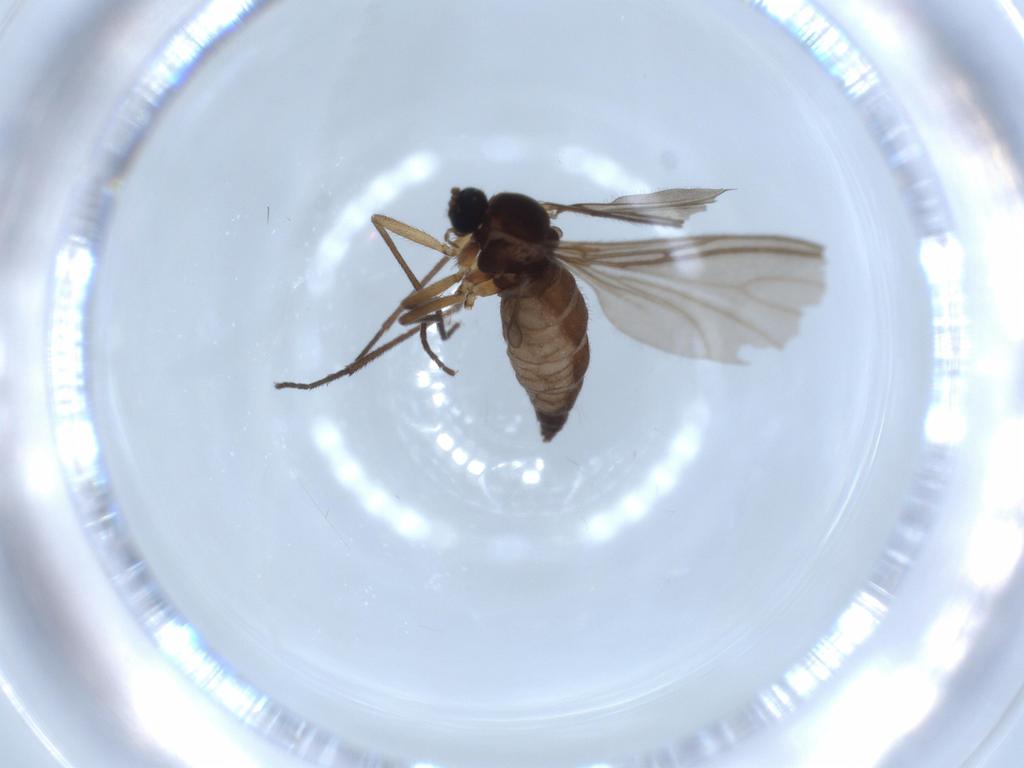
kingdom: Animalia
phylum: Arthropoda
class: Insecta
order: Diptera
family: Sciaridae
